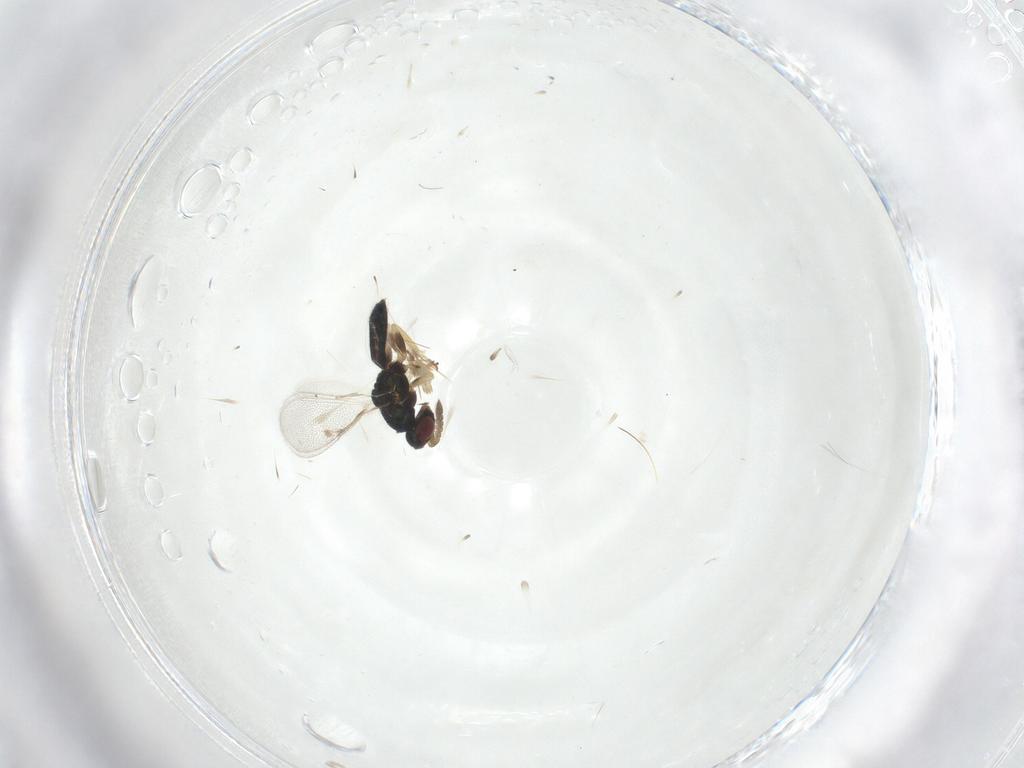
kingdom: Animalia
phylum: Arthropoda
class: Insecta
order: Hymenoptera
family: Eulophidae
